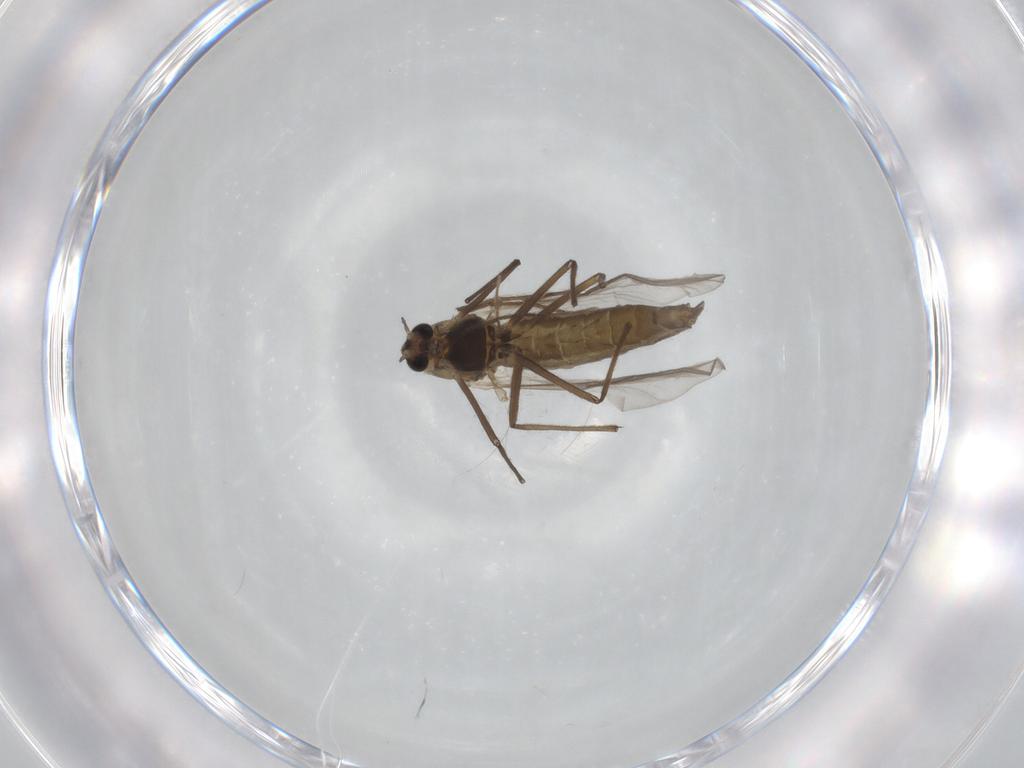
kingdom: Animalia
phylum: Arthropoda
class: Insecta
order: Diptera
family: Chironomidae
